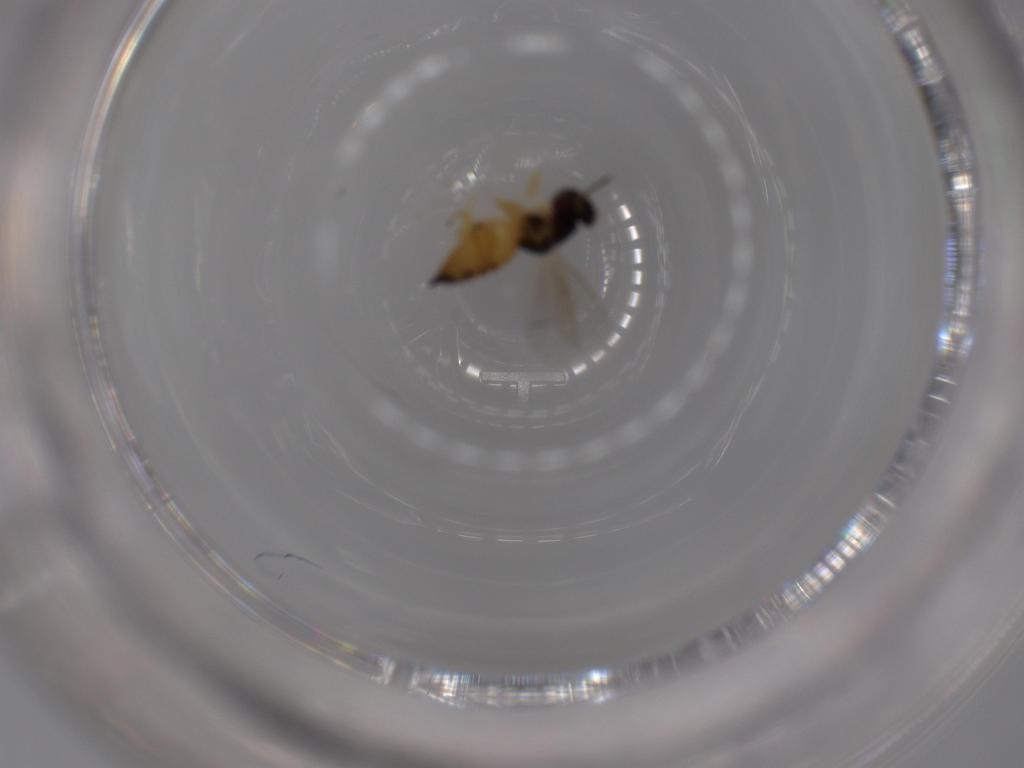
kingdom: Animalia
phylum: Arthropoda
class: Insecta
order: Hymenoptera
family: Eulophidae
